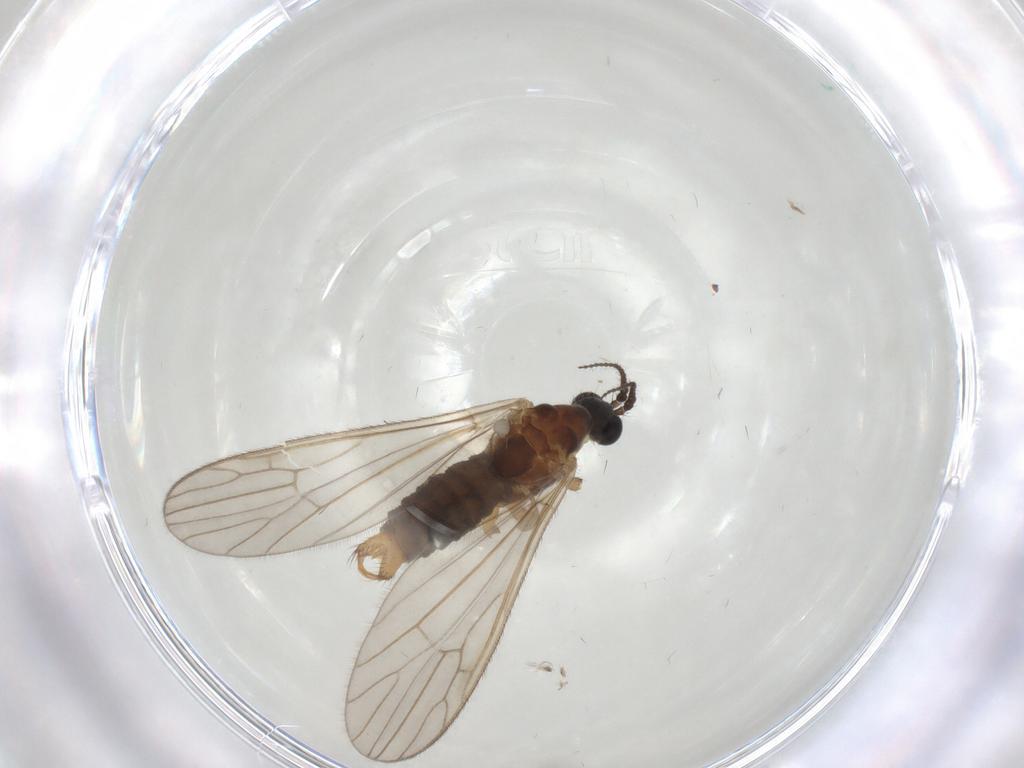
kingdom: Animalia
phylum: Arthropoda
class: Insecta
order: Diptera
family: Agromyzidae
